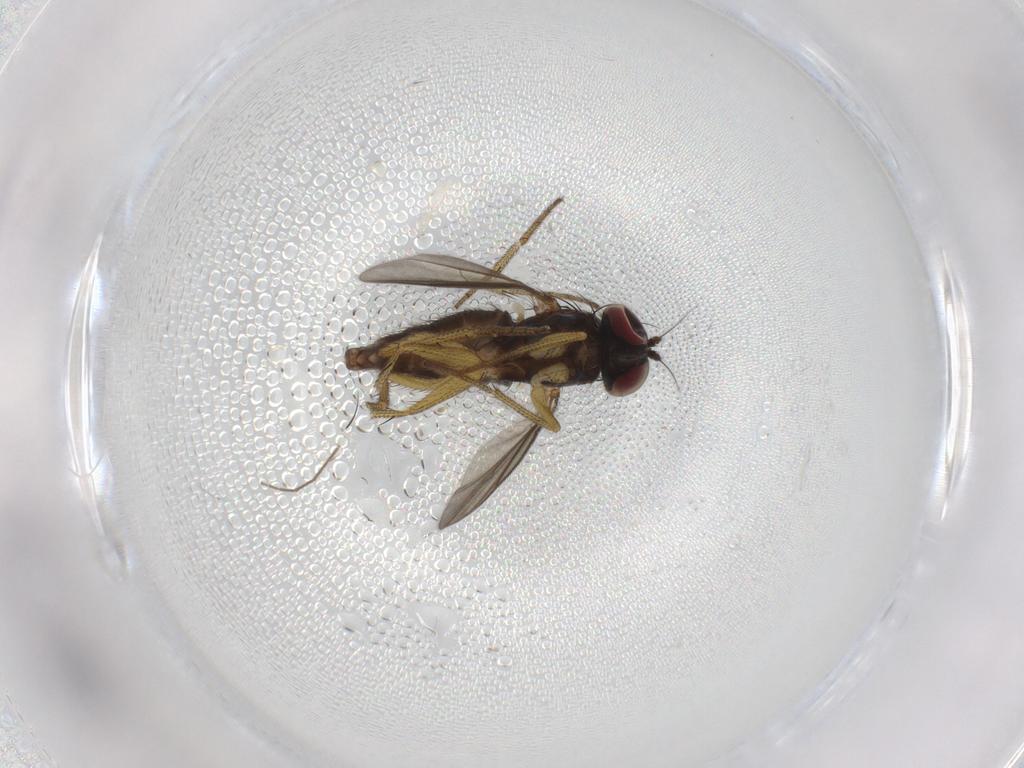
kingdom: Animalia
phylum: Arthropoda
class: Insecta
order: Diptera
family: Chironomidae
